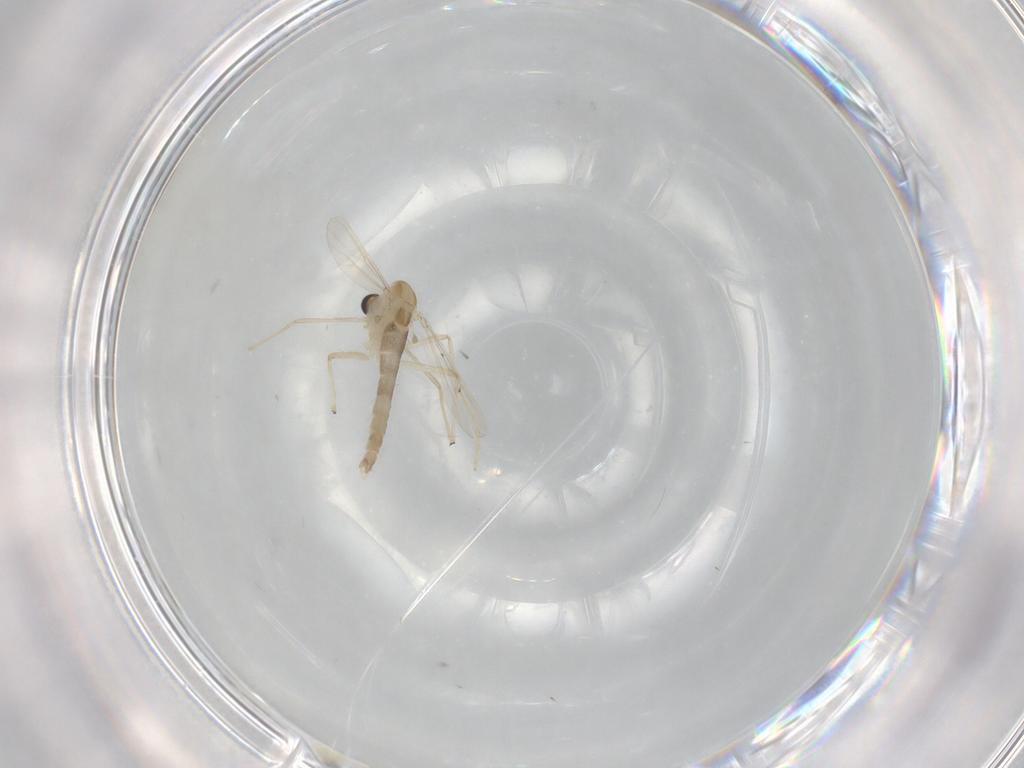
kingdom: Animalia
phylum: Arthropoda
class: Insecta
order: Diptera
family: Chironomidae
